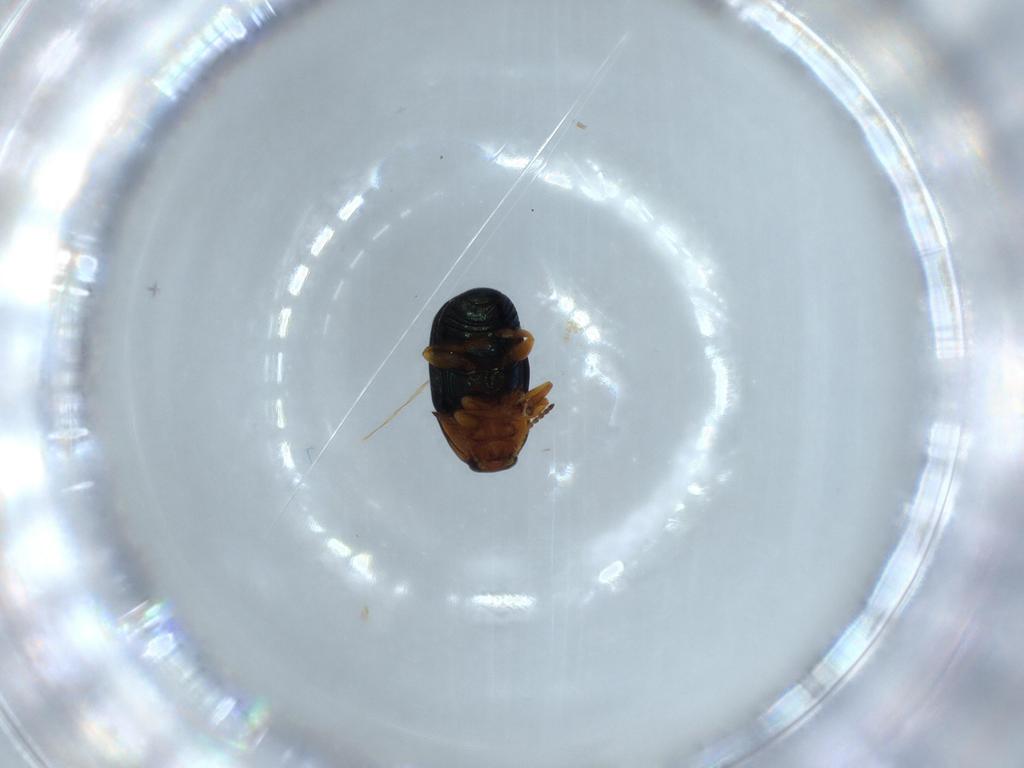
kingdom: Animalia
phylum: Arthropoda
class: Insecta
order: Coleoptera
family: Chrysomelidae
